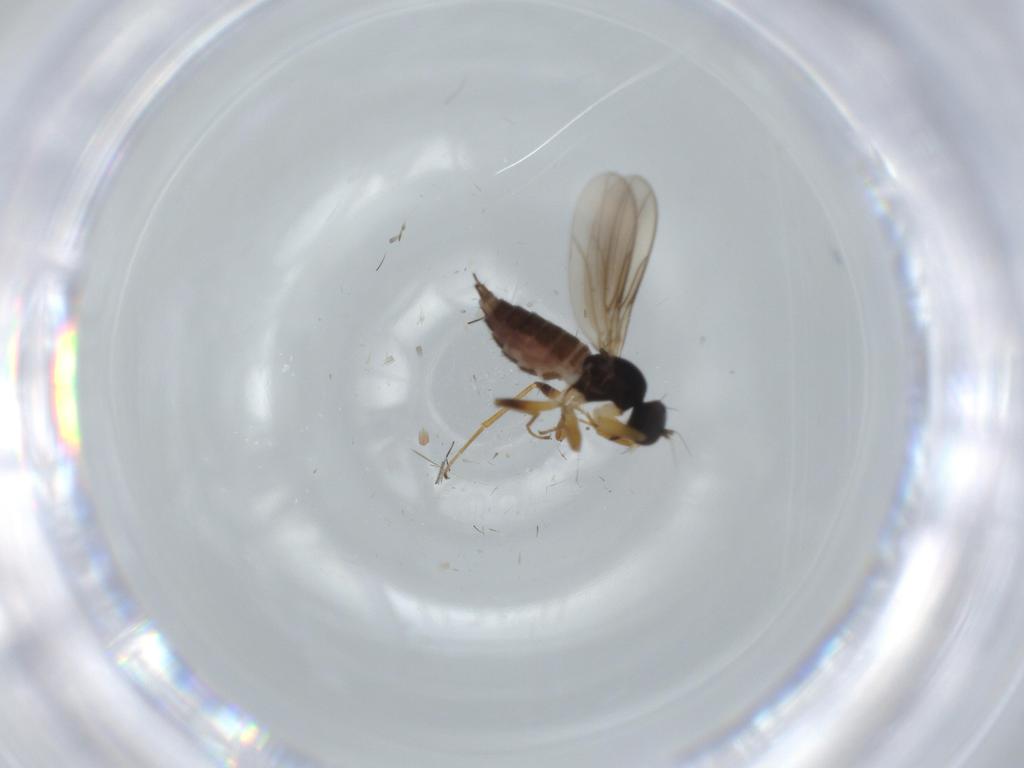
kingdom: Animalia
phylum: Arthropoda
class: Insecta
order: Diptera
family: Hybotidae
